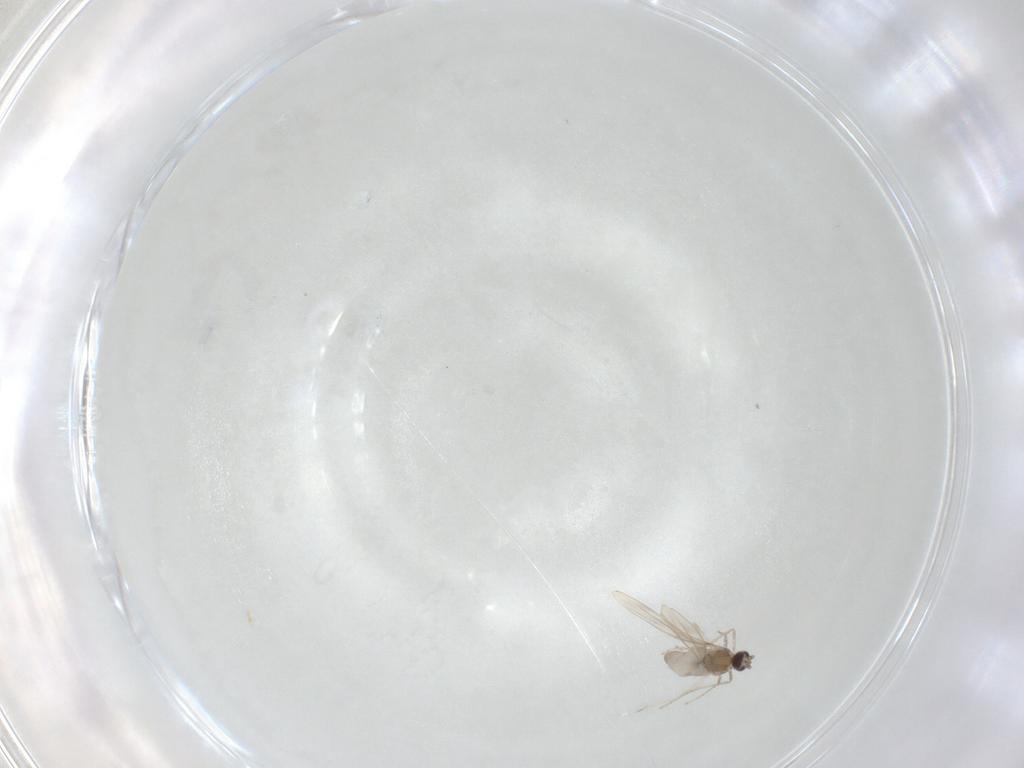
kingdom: Animalia
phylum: Arthropoda
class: Insecta
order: Diptera
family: Cecidomyiidae
